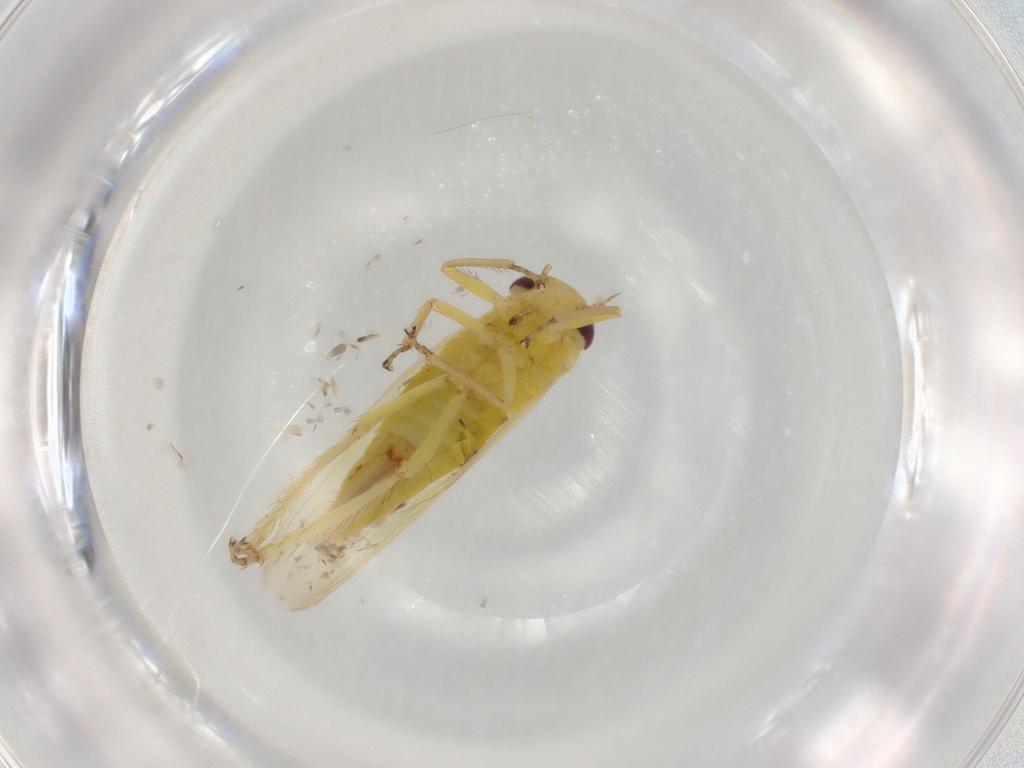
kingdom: Animalia
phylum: Arthropoda
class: Insecta
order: Hemiptera
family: Cicadellidae
